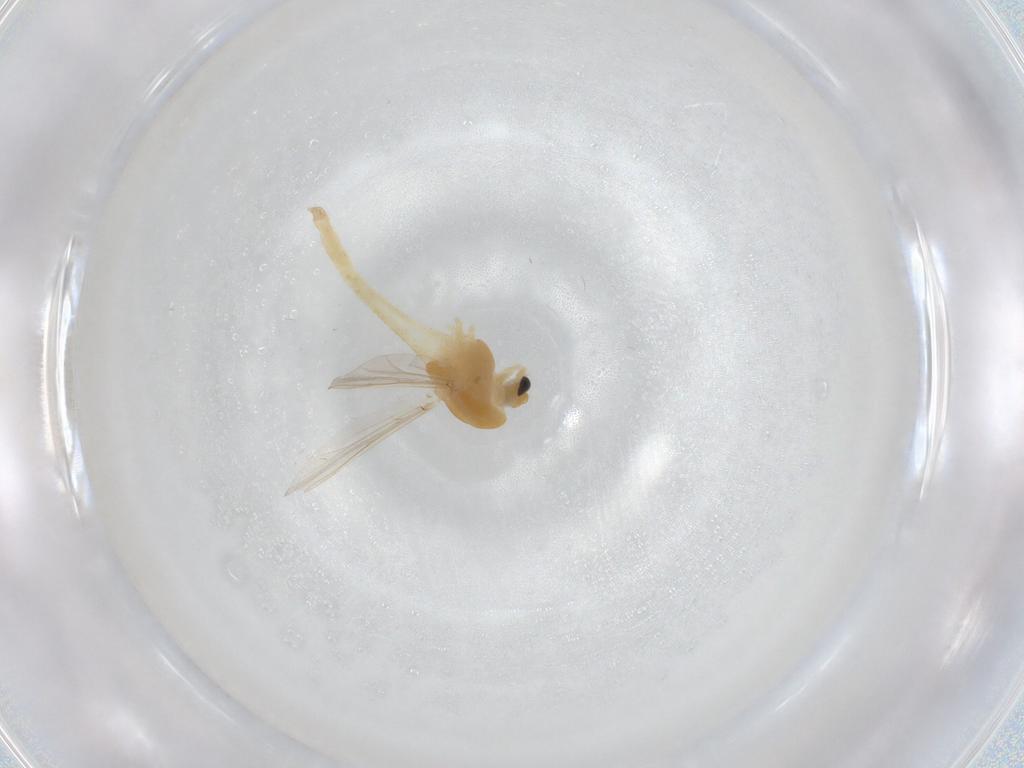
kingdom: Animalia
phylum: Arthropoda
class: Insecta
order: Diptera
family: Chironomidae
